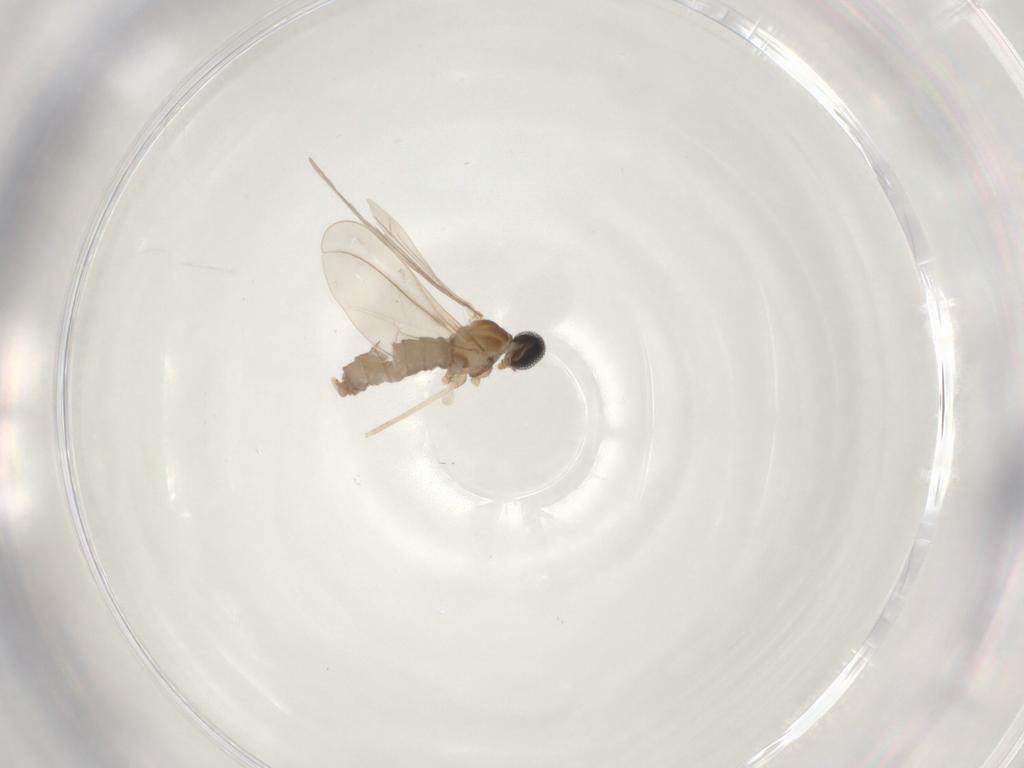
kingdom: Animalia
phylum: Arthropoda
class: Insecta
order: Diptera
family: Cecidomyiidae
